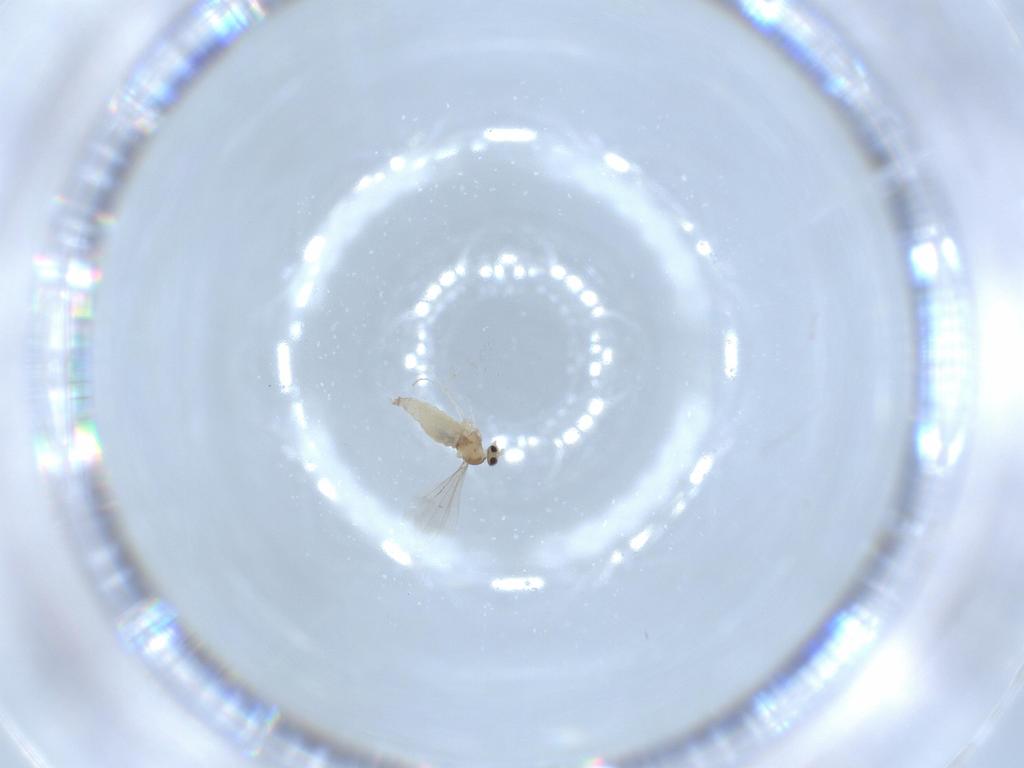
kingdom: Animalia
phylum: Arthropoda
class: Insecta
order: Diptera
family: Cecidomyiidae
